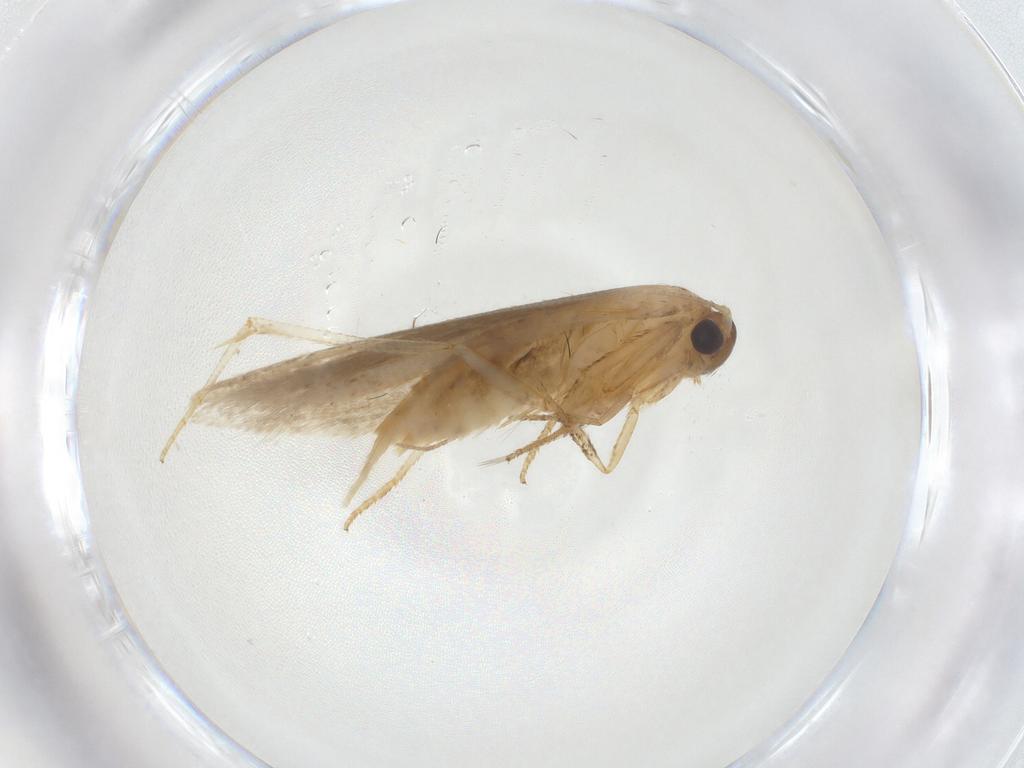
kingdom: Animalia
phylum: Arthropoda
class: Insecta
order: Lepidoptera
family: Blastobasidae
